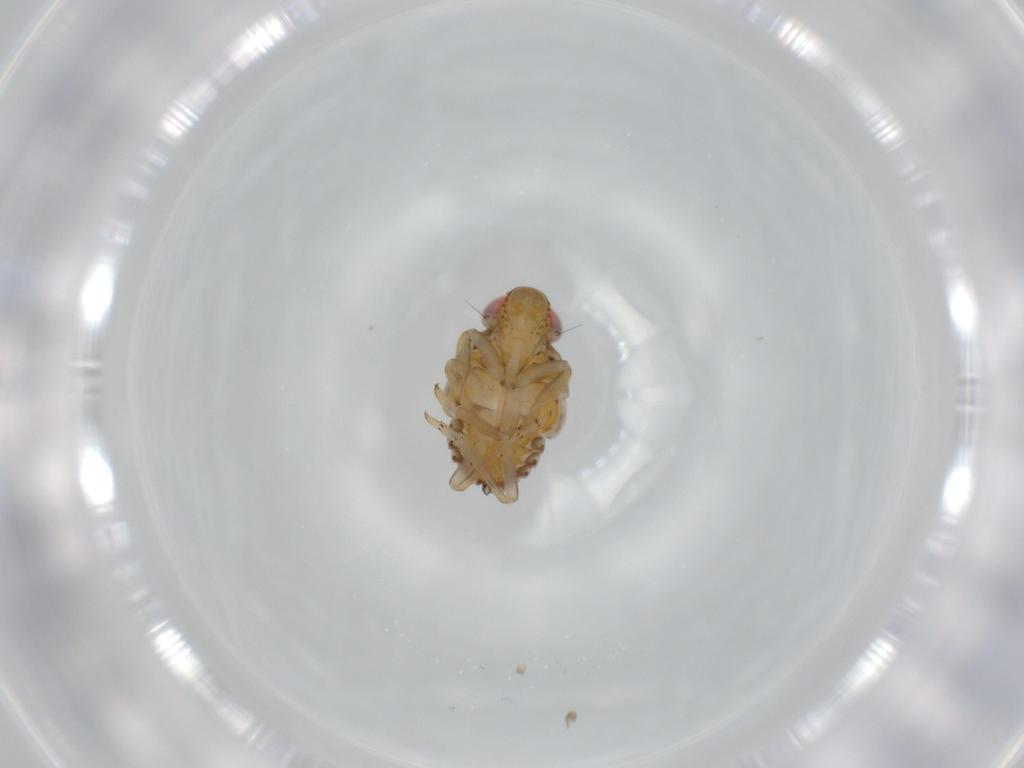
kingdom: Animalia
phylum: Arthropoda
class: Insecta
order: Hemiptera
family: Issidae
